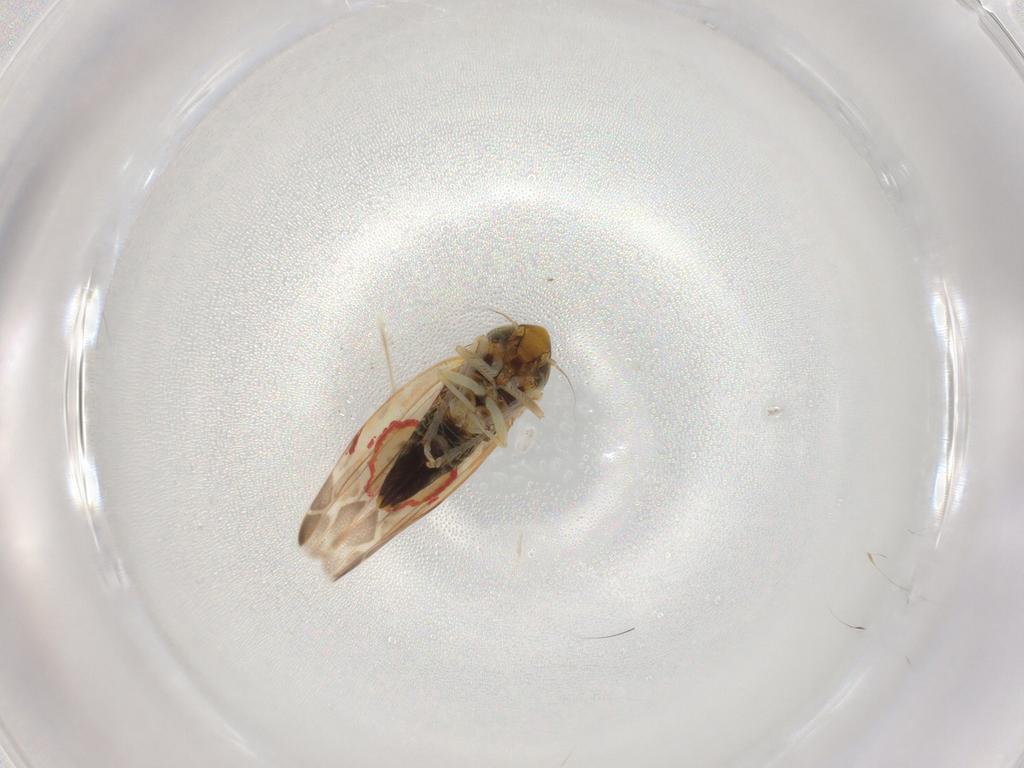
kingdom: Animalia
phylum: Arthropoda
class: Insecta
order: Hemiptera
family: Cicadellidae
